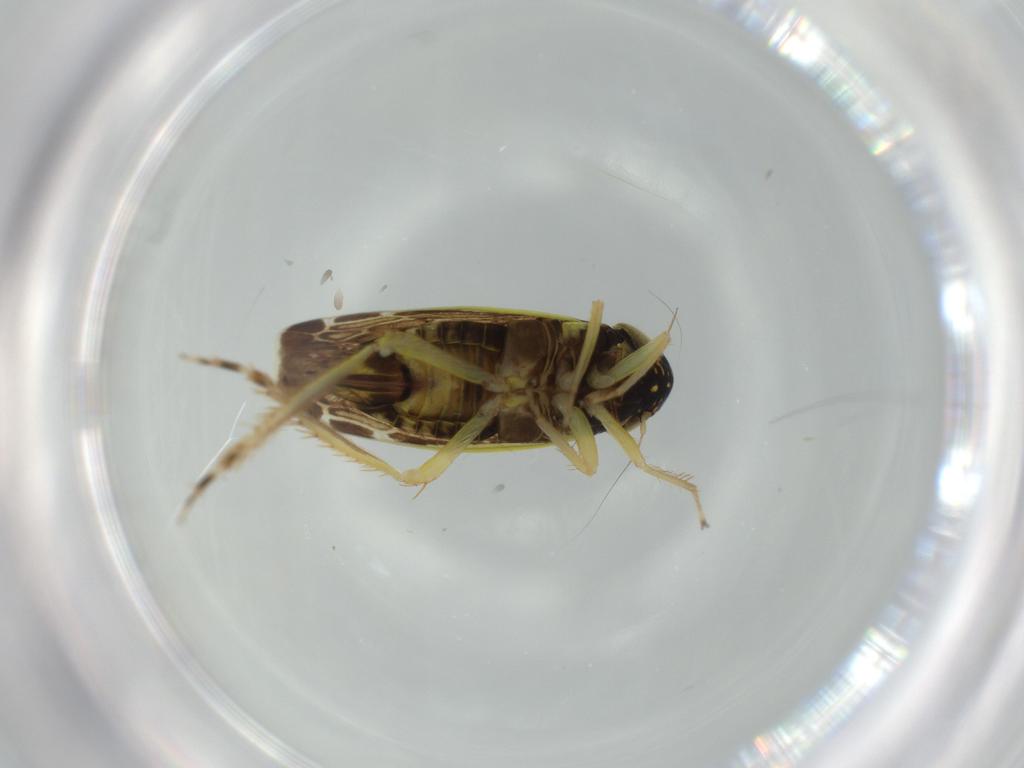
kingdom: Animalia
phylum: Arthropoda
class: Insecta
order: Hemiptera
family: Cicadellidae
